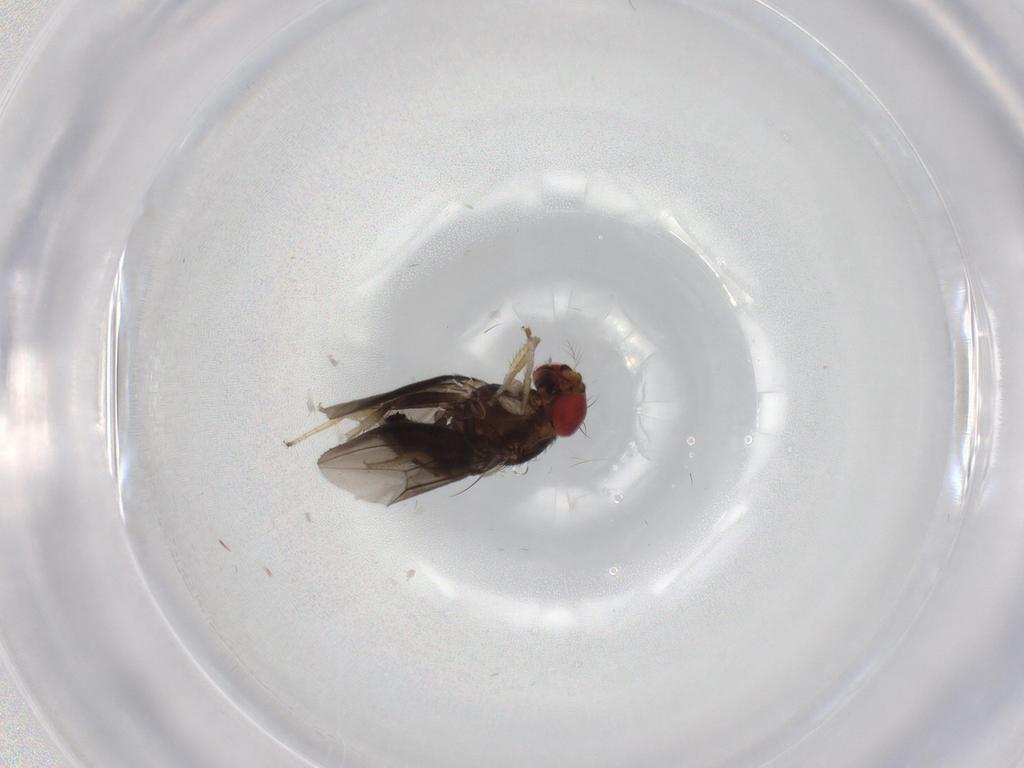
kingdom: Animalia
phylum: Arthropoda
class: Insecta
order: Diptera
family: Chironomidae
